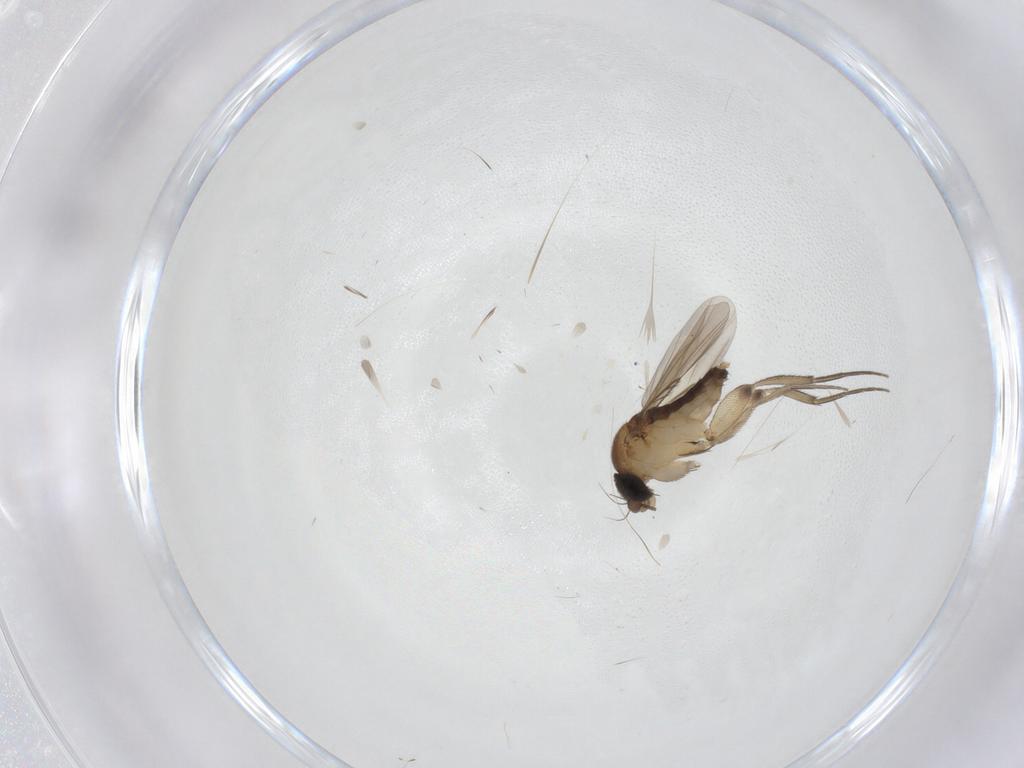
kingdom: Animalia
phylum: Arthropoda
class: Insecta
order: Diptera
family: Phoridae
